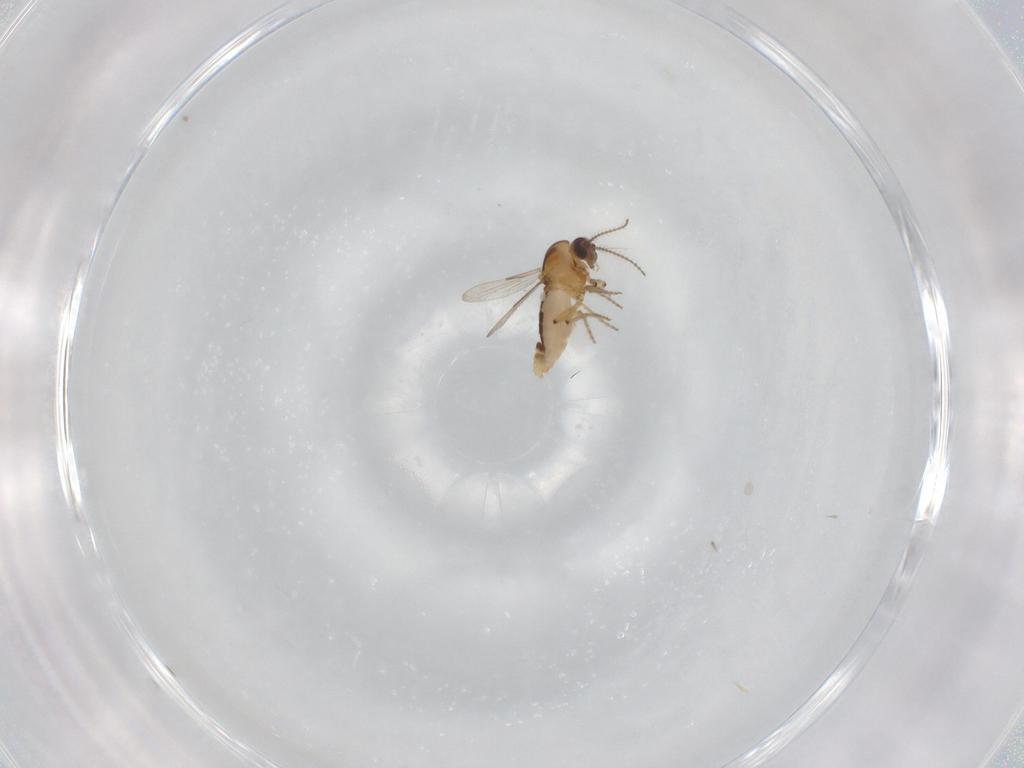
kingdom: Animalia
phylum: Arthropoda
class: Insecta
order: Diptera
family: Ceratopogonidae
